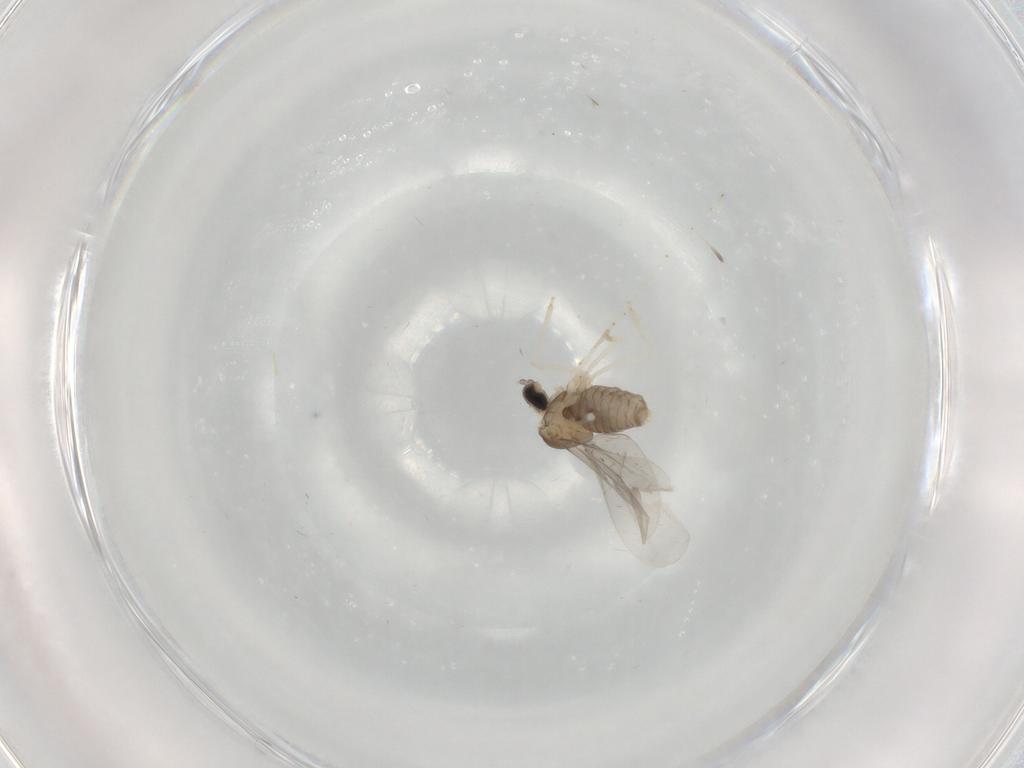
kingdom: Animalia
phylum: Arthropoda
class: Insecta
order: Diptera
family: Cecidomyiidae
